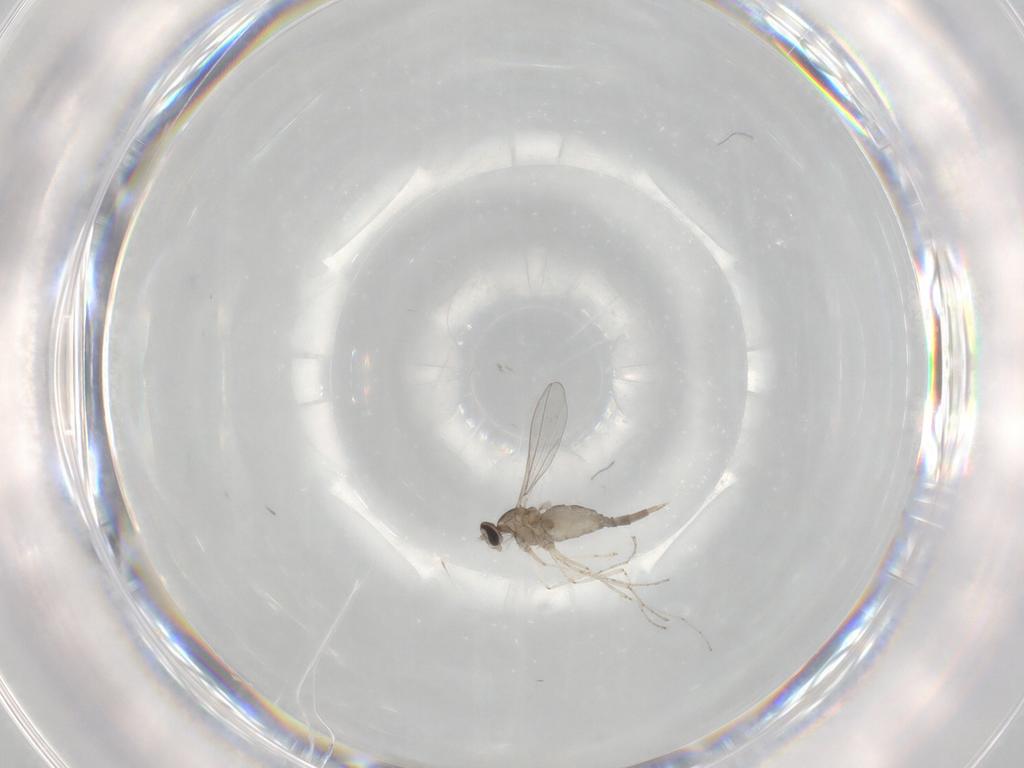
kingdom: Animalia
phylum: Arthropoda
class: Insecta
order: Diptera
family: Cecidomyiidae
